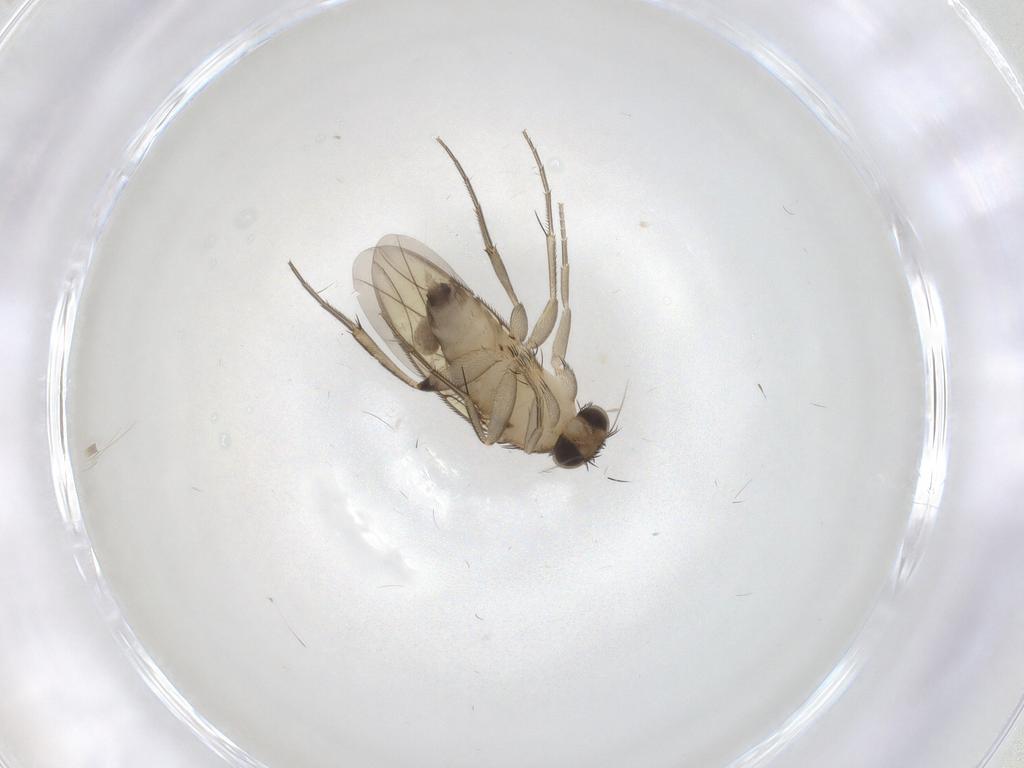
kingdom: Animalia
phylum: Arthropoda
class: Insecta
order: Diptera
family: Phoridae
